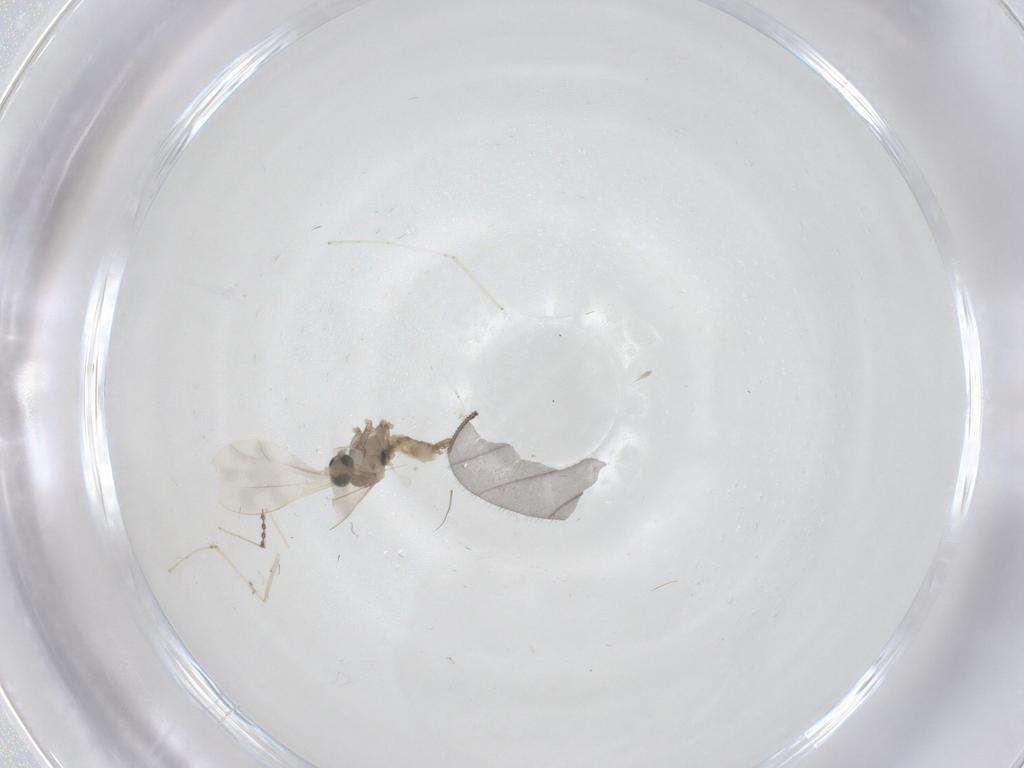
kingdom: Animalia
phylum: Arthropoda
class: Insecta
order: Diptera
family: Cecidomyiidae
